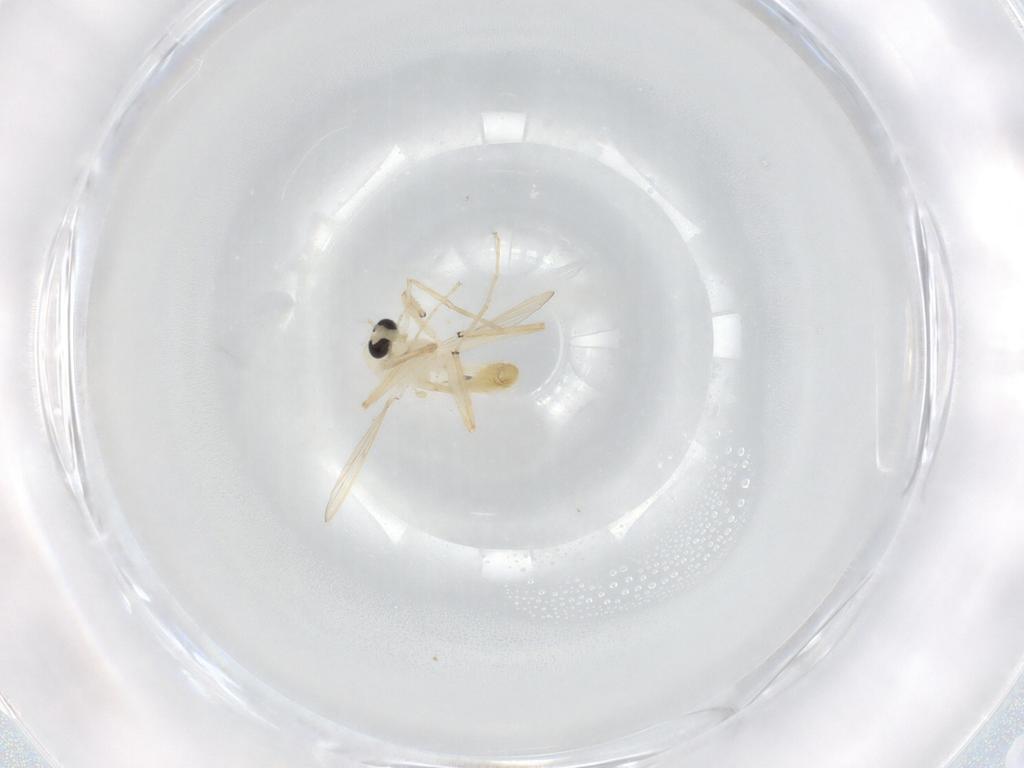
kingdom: Animalia
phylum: Arthropoda
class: Insecta
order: Diptera
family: Chironomidae
